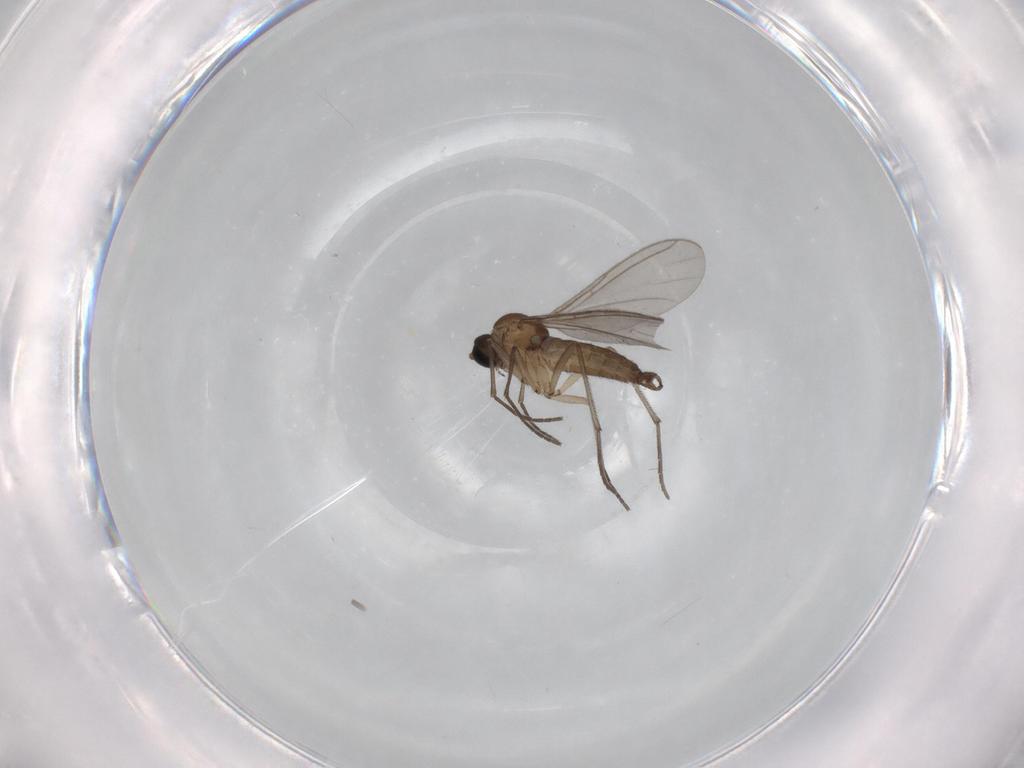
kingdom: Animalia
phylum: Arthropoda
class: Insecta
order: Diptera
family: Sciaridae
